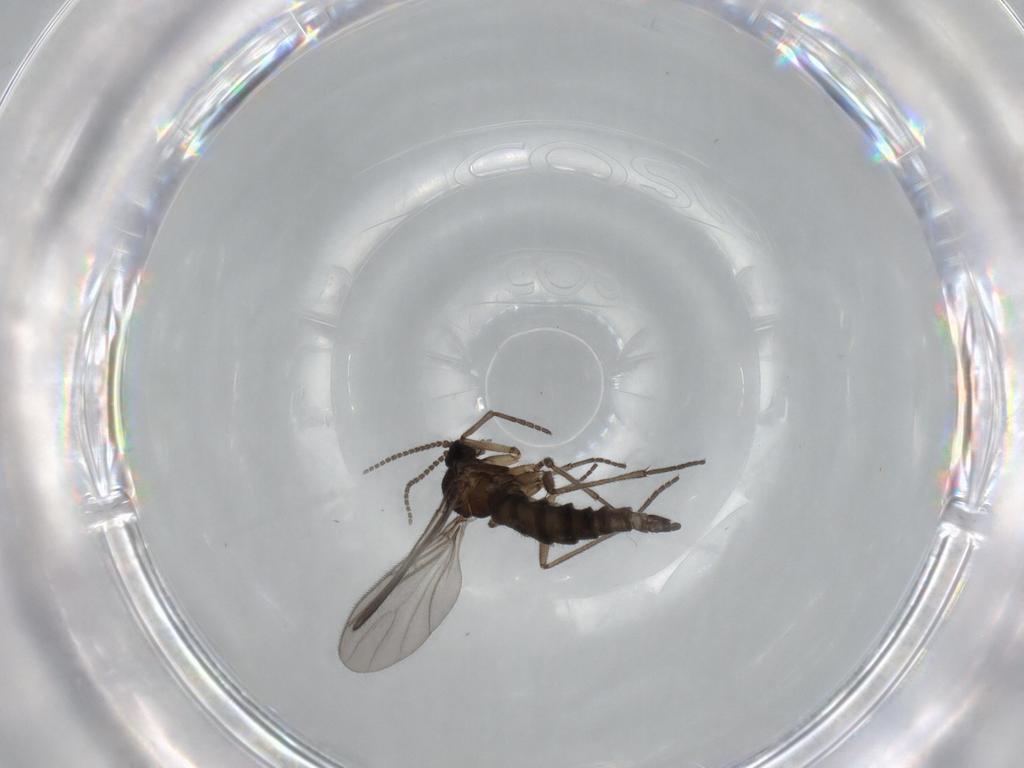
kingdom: Animalia
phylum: Arthropoda
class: Insecta
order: Diptera
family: Sciaridae
